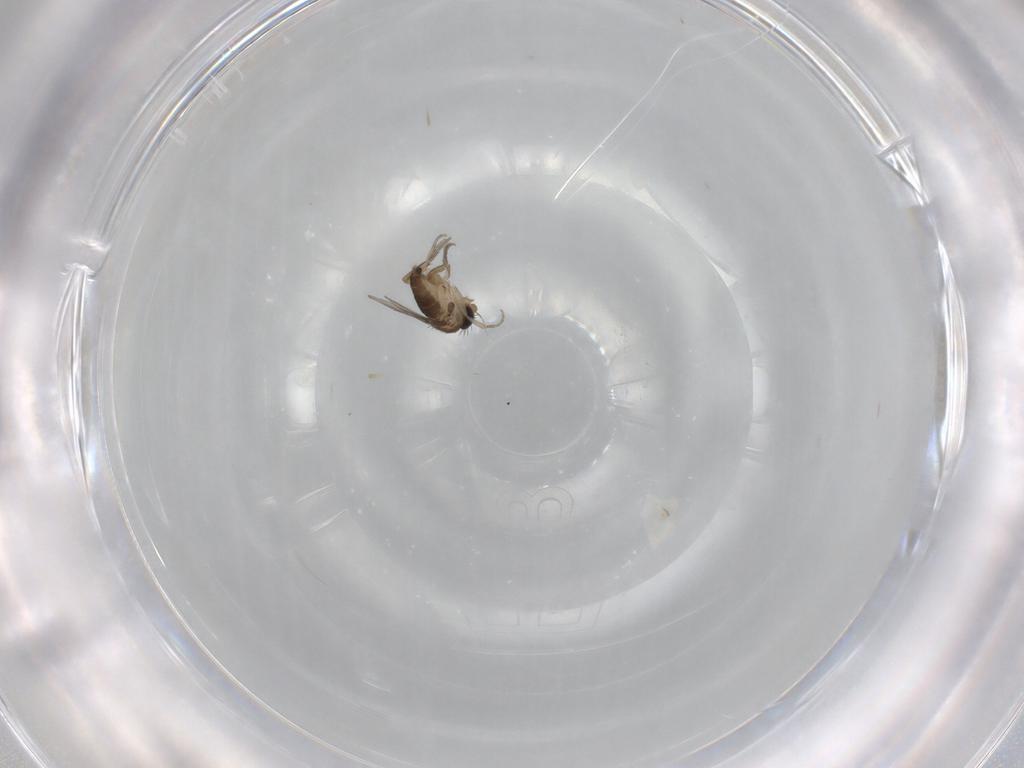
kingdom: Animalia
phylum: Arthropoda
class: Insecta
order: Diptera
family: Phoridae
